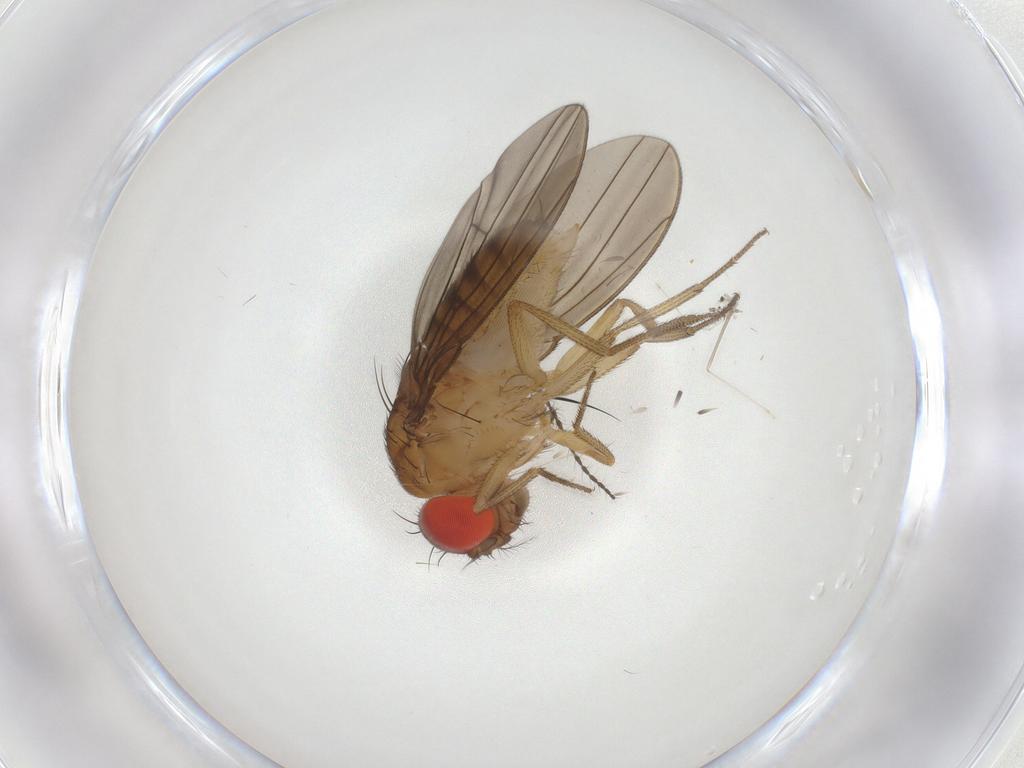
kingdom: Animalia
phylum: Arthropoda
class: Insecta
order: Diptera
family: Drosophilidae
